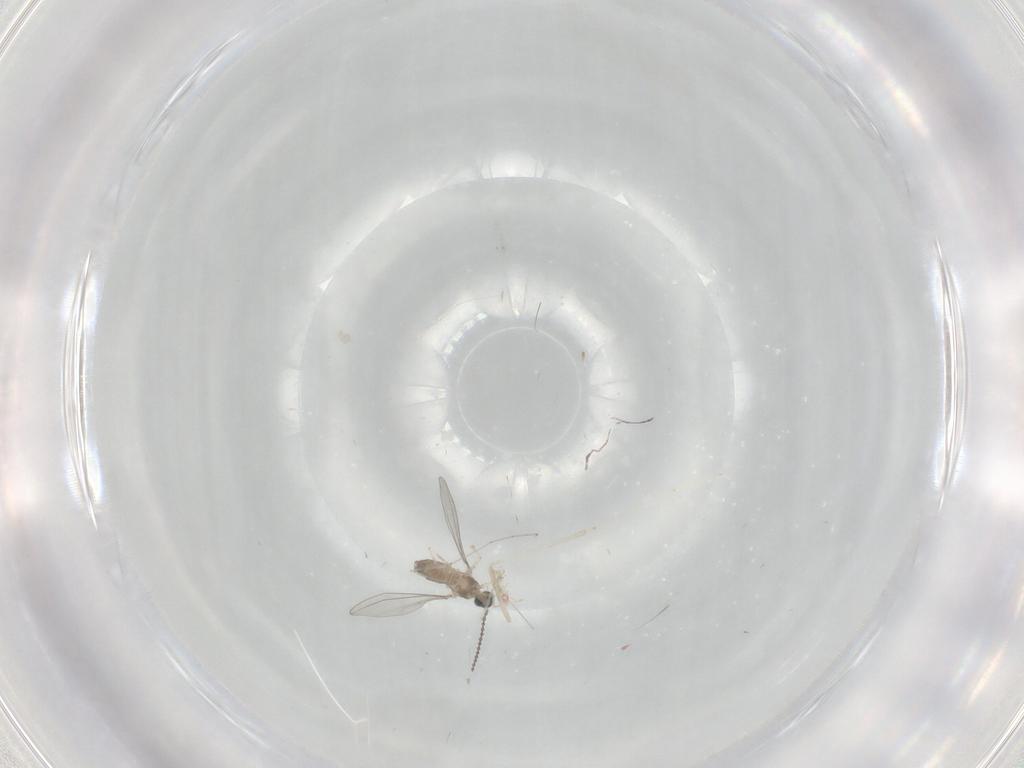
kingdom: Animalia
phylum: Arthropoda
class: Insecta
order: Diptera
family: Cecidomyiidae
